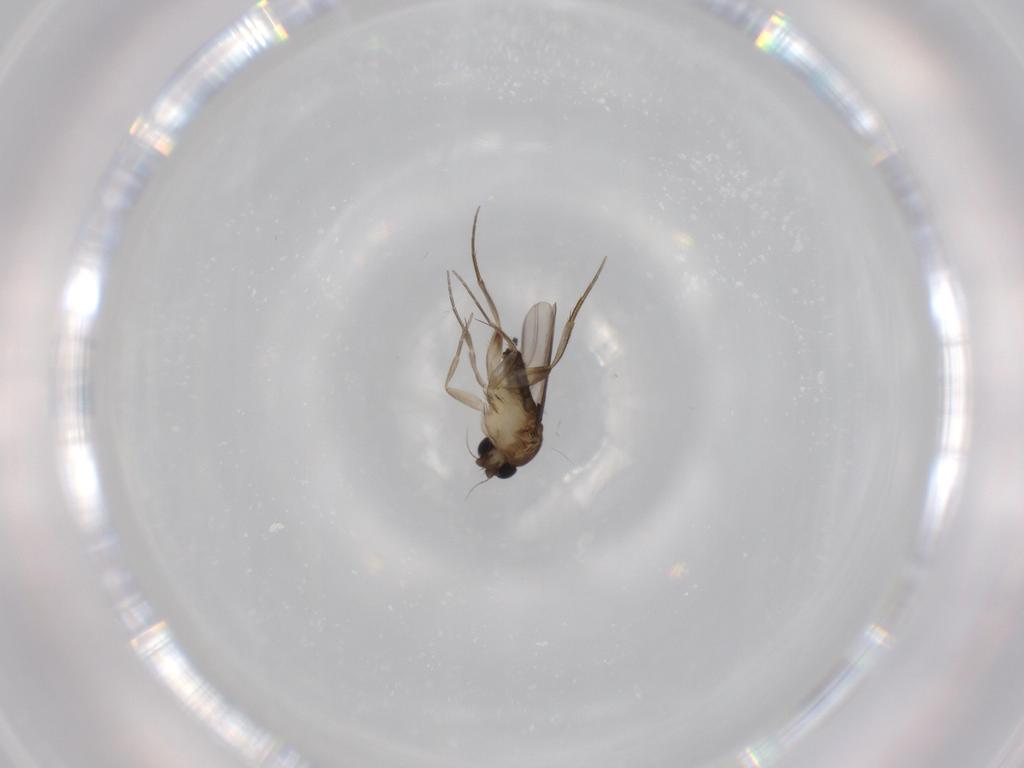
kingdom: Animalia
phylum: Arthropoda
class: Insecta
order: Diptera
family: Phoridae
